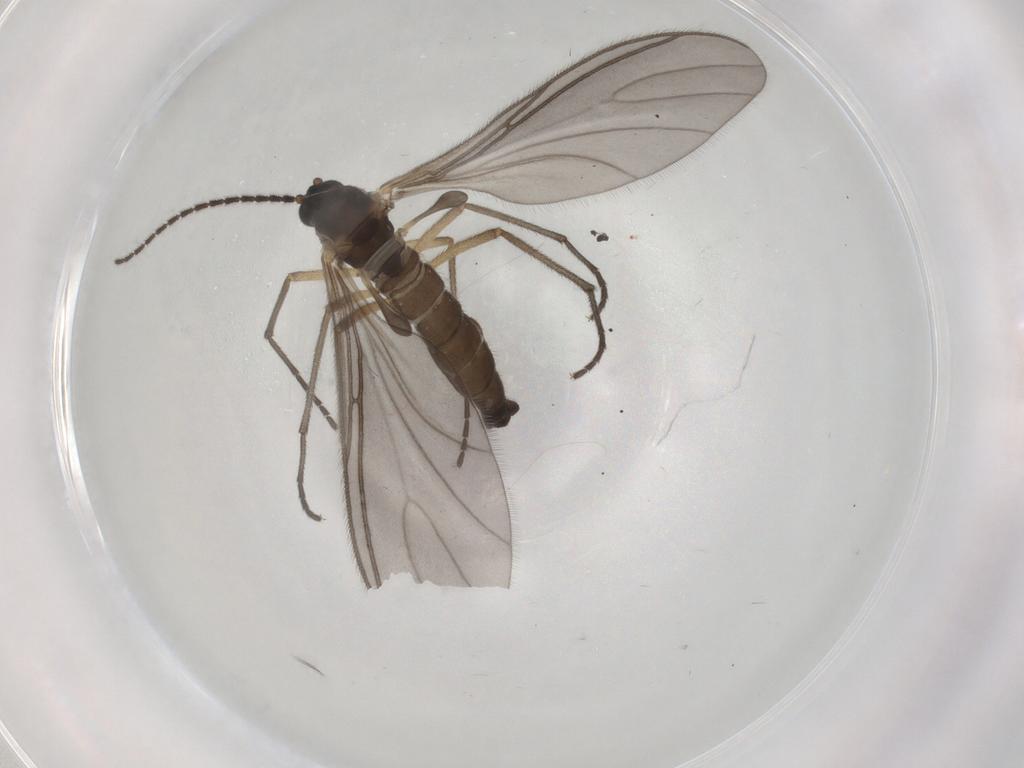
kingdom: Animalia
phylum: Arthropoda
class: Insecta
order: Diptera
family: Sciaridae
